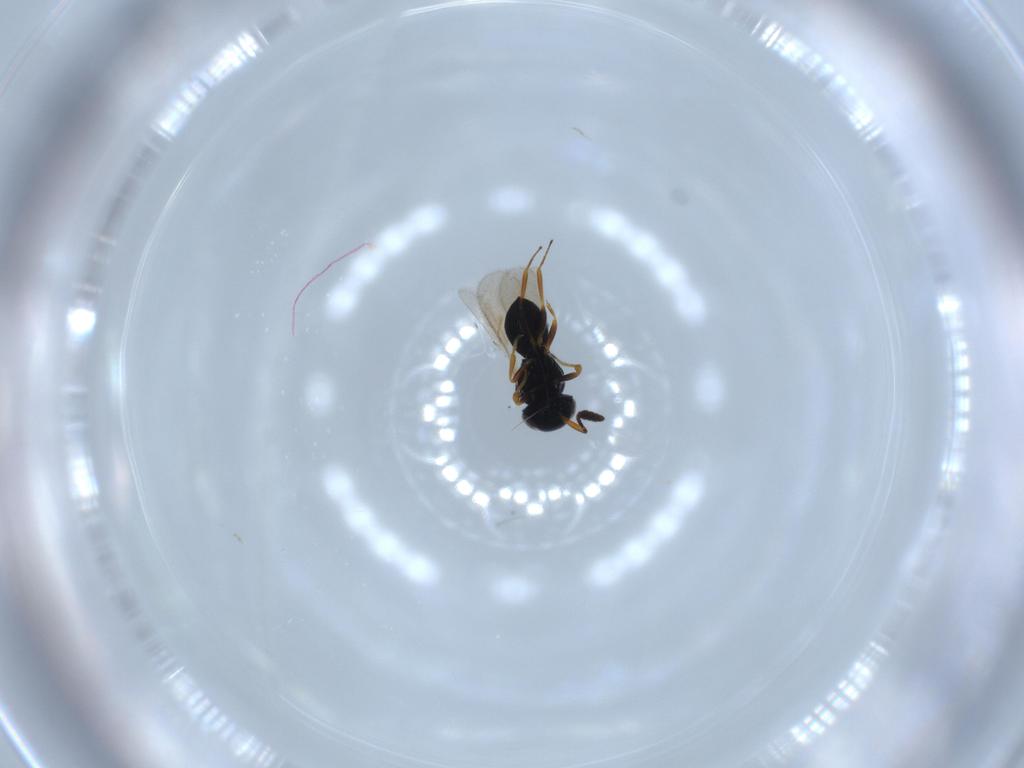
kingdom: Animalia
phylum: Arthropoda
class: Insecta
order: Hymenoptera
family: Scelionidae
